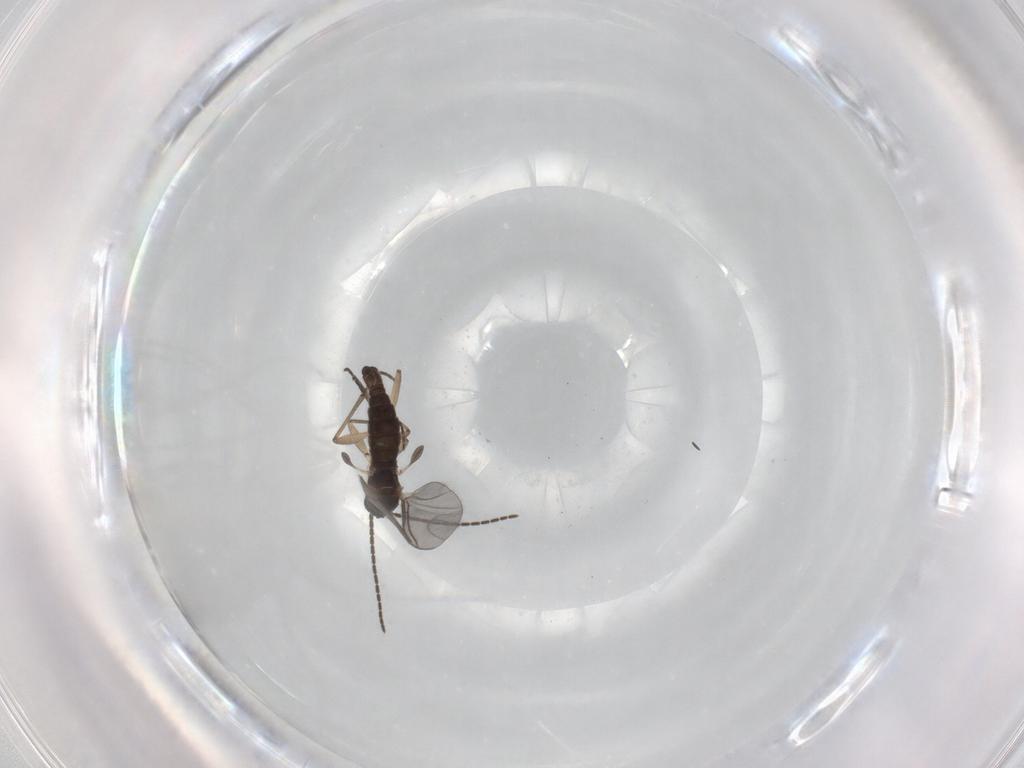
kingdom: Animalia
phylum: Arthropoda
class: Insecta
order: Diptera
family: Sciaridae
